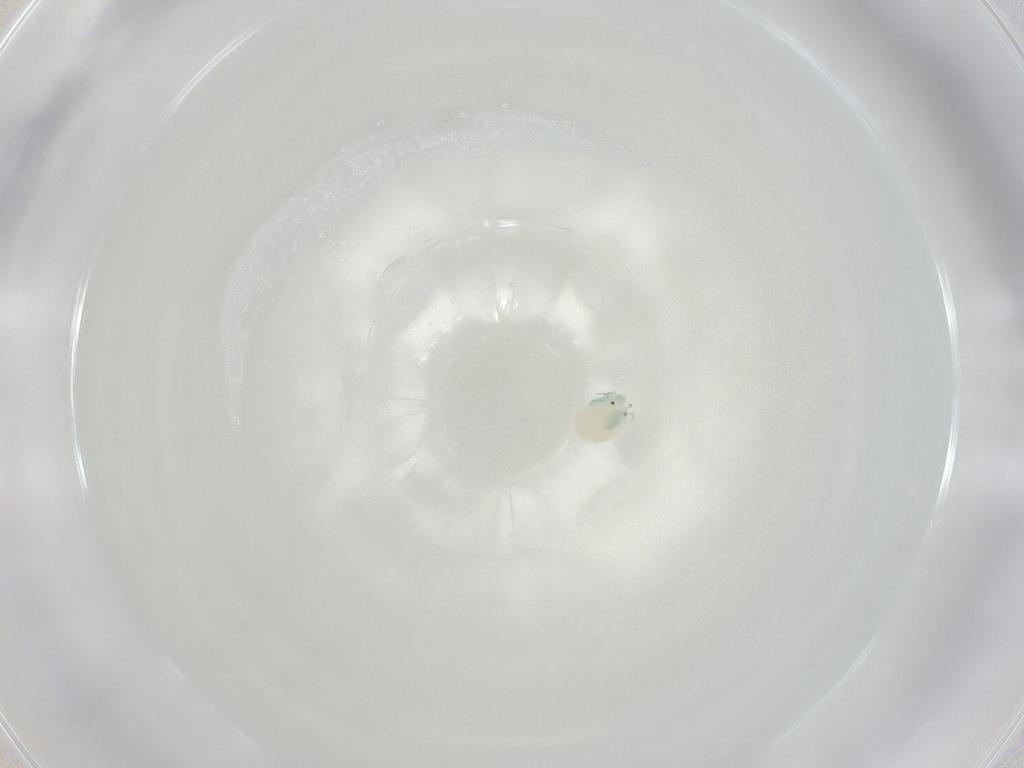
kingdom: Animalia
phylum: Arthropoda
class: Arachnida
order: Trombidiformes
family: Arrenuridae
